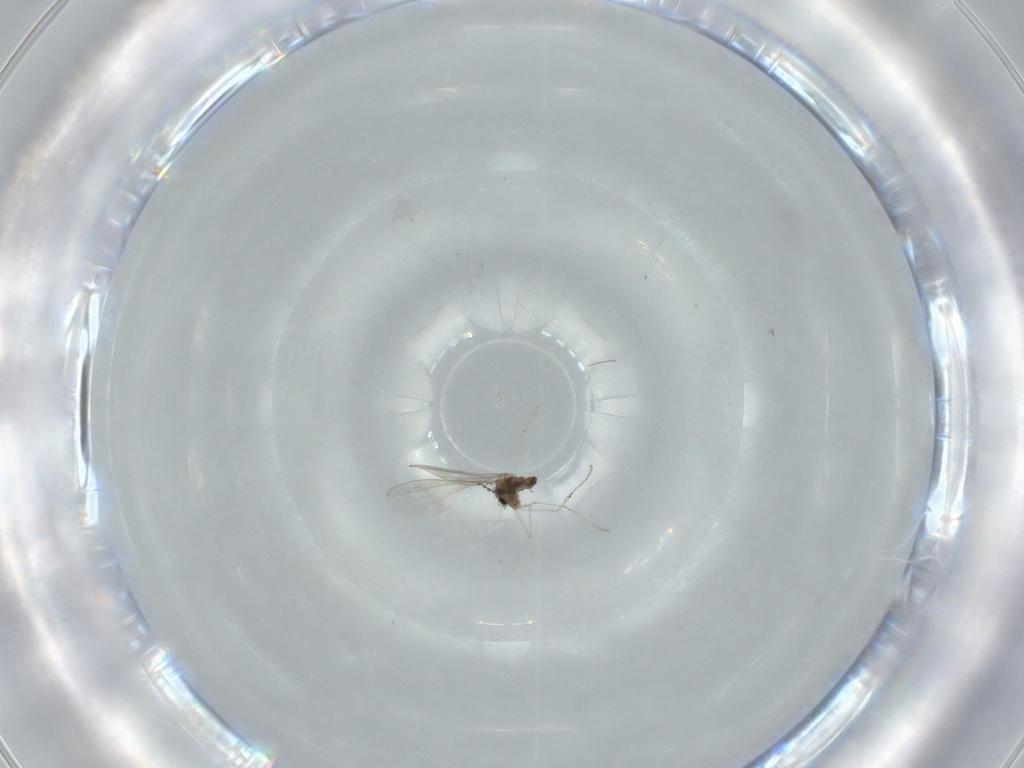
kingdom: Animalia
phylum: Arthropoda
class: Insecta
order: Diptera
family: Cecidomyiidae
